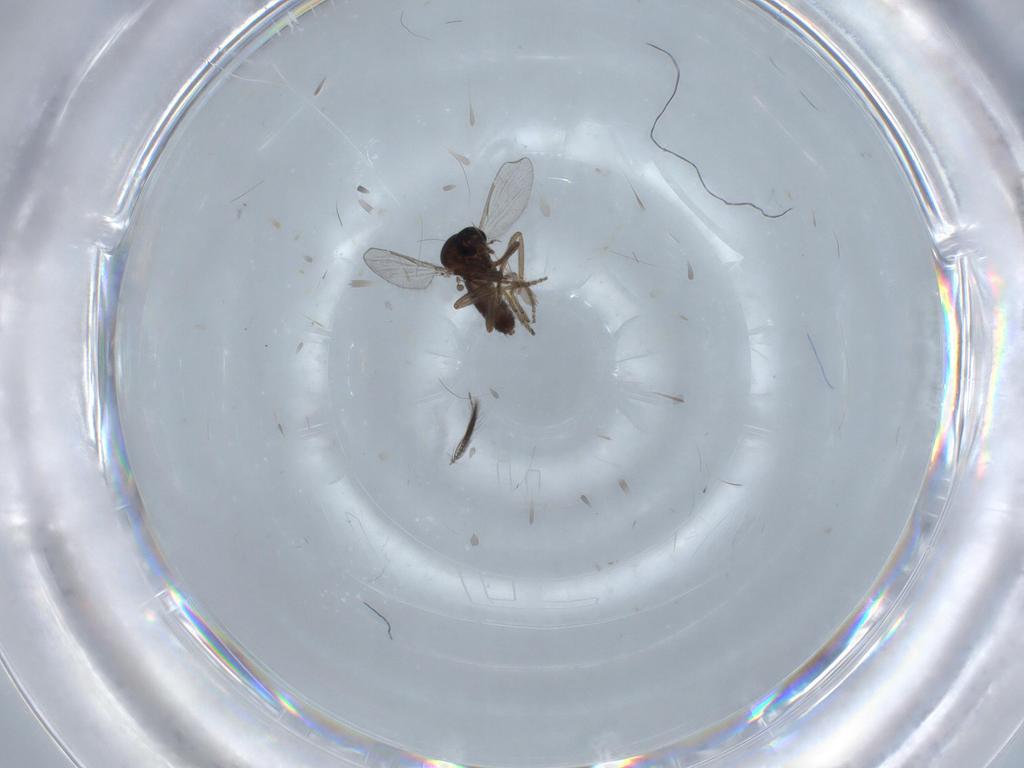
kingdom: Animalia
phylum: Arthropoda
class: Insecta
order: Diptera
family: Ceratopogonidae
